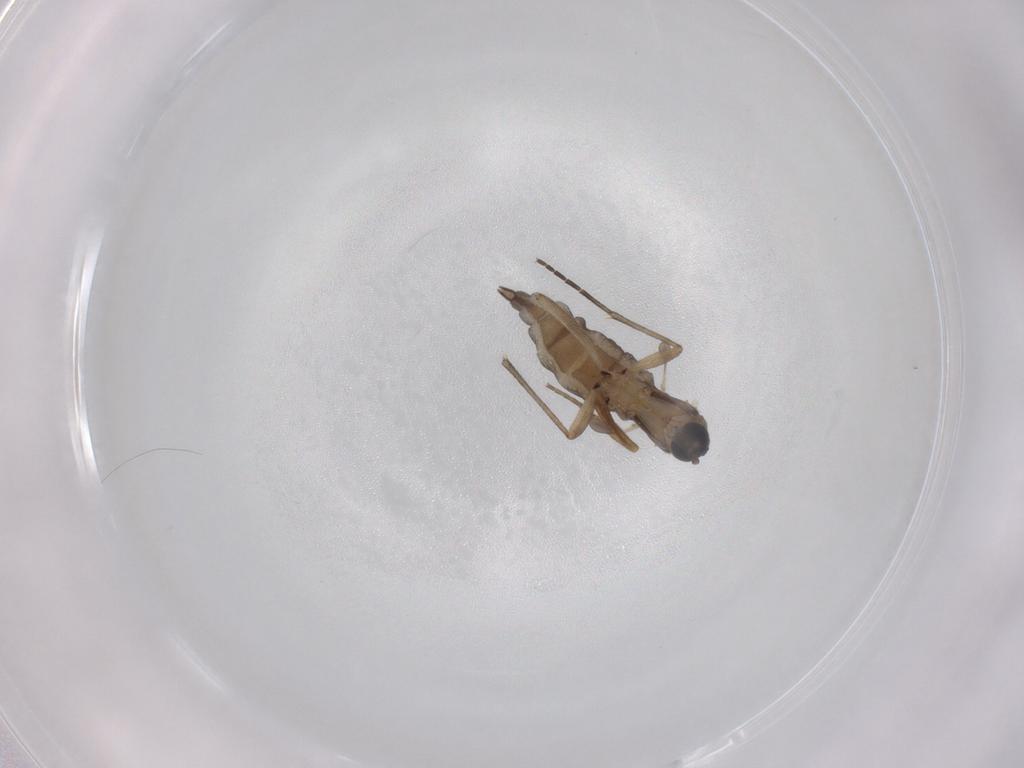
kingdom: Animalia
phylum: Arthropoda
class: Insecta
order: Diptera
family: Sciaridae
